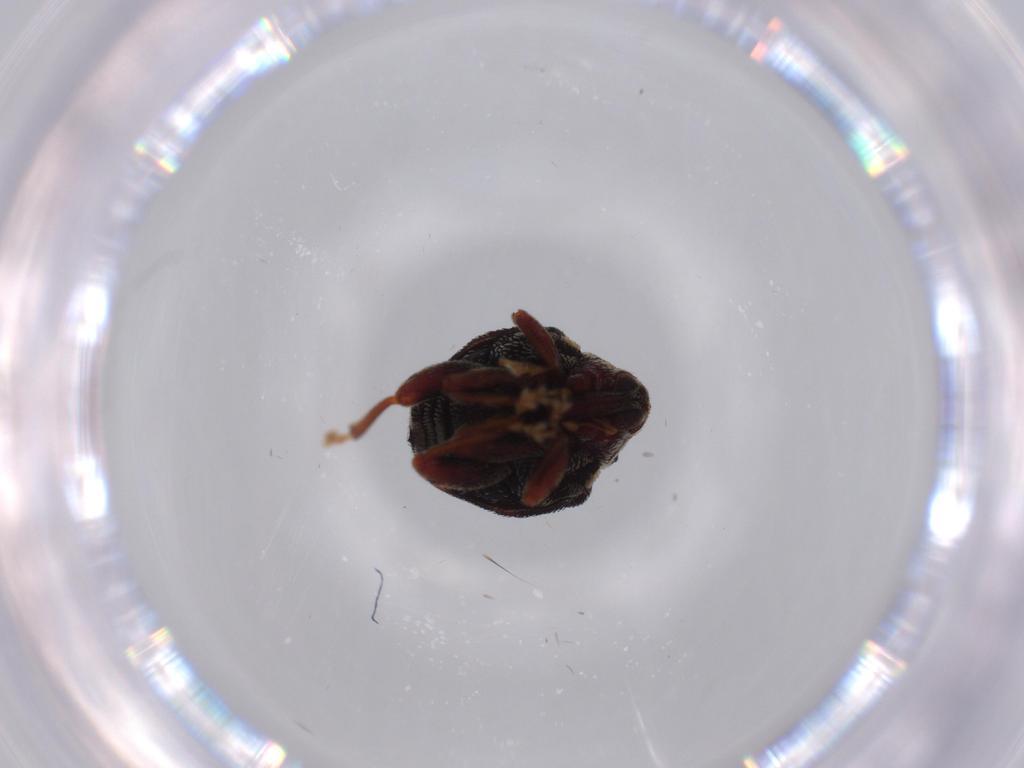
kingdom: Animalia
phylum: Arthropoda
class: Insecta
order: Coleoptera
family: Curculionidae
